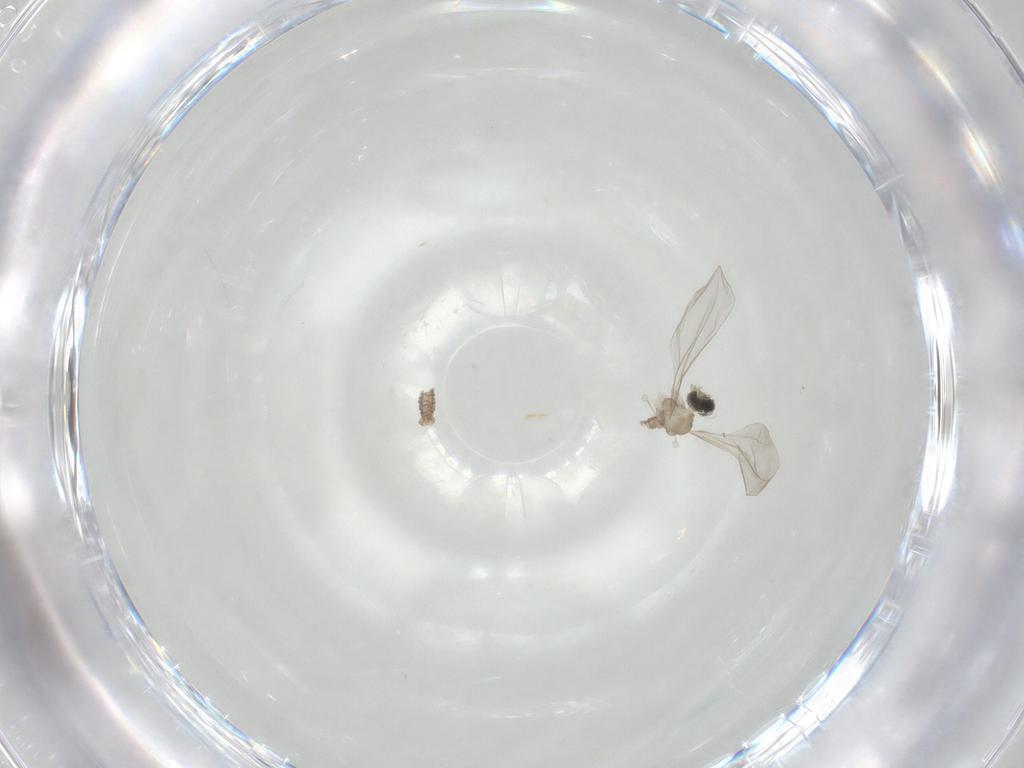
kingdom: Animalia
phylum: Arthropoda
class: Insecta
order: Diptera
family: Cecidomyiidae
